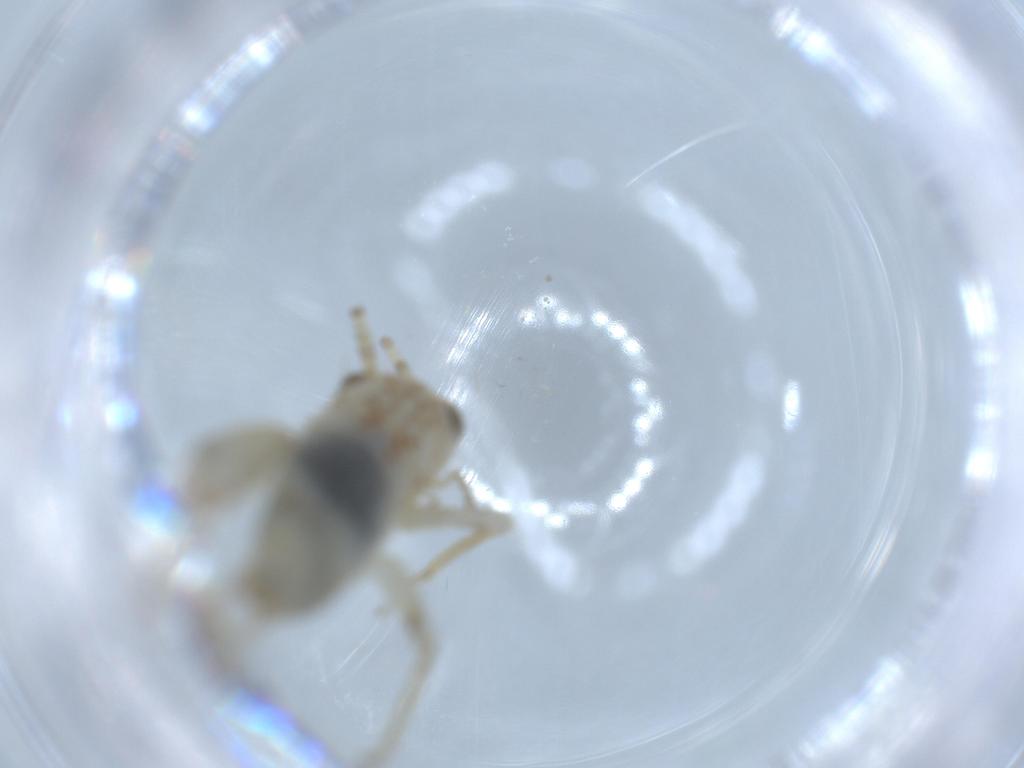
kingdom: Animalia
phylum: Arthropoda
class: Insecta
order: Orthoptera
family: Trigonidiidae
